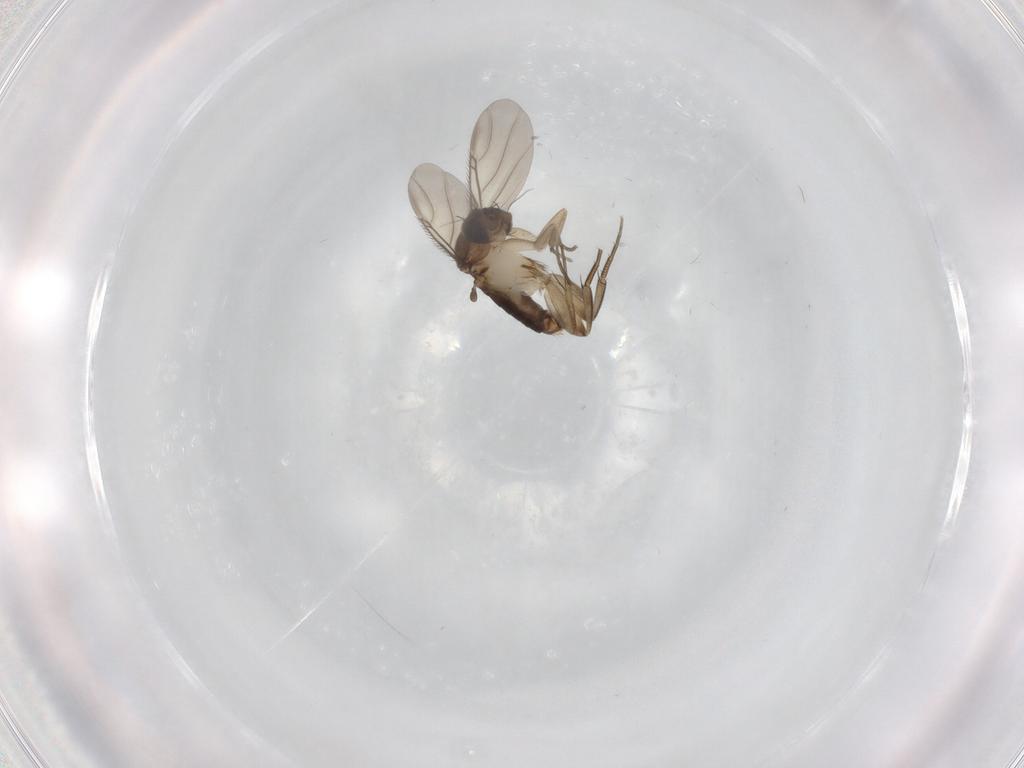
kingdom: Animalia
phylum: Arthropoda
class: Insecta
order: Diptera
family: Phoridae
